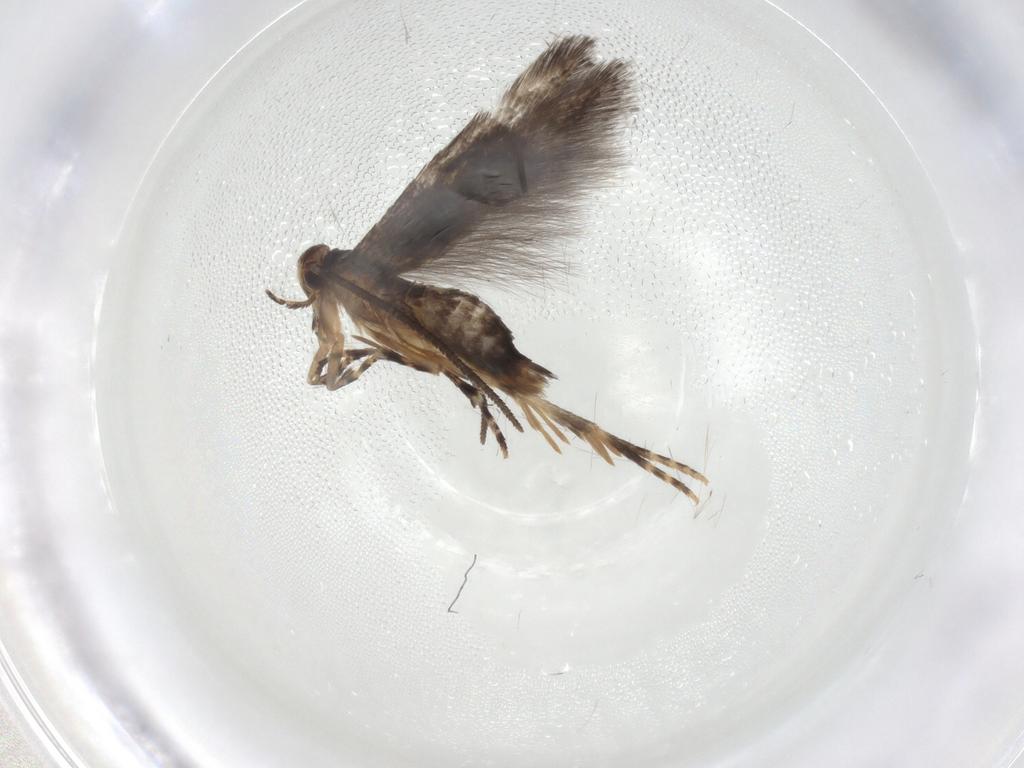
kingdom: Animalia
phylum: Arthropoda
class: Insecta
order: Lepidoptera
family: Elachistidae
